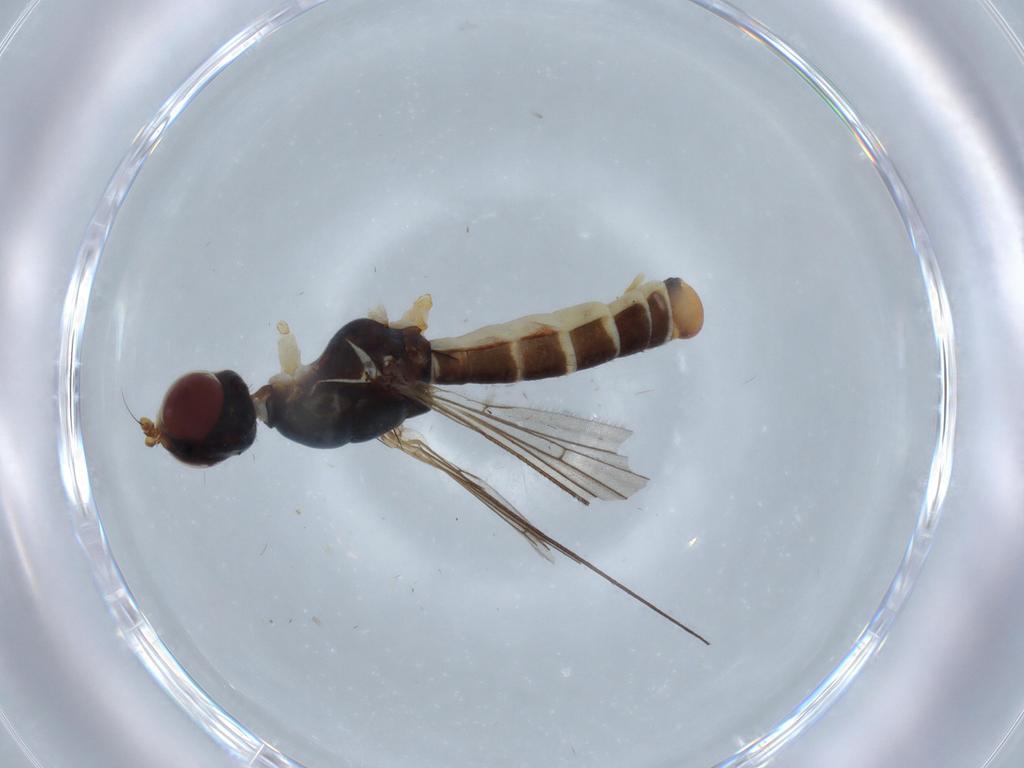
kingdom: Animalia
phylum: Arthropoda
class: Insecta
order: Diptera
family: Micropezidae
